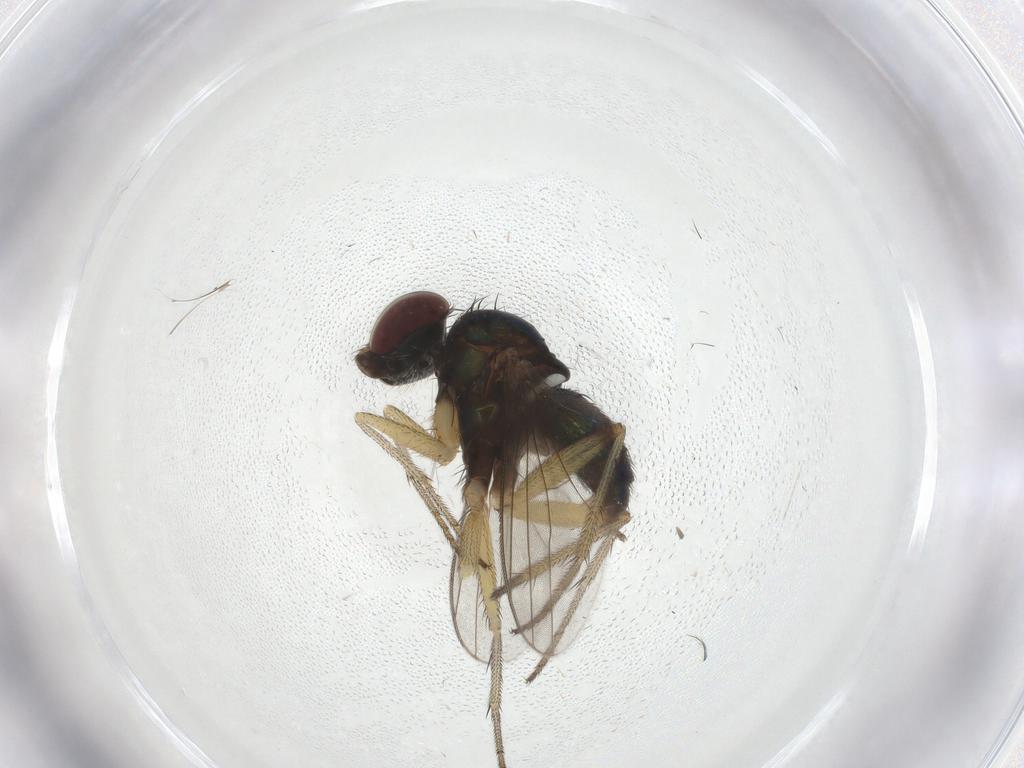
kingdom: Animalia
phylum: Arthropoda
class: Insecta
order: Diptera
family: Dolichopodidae
